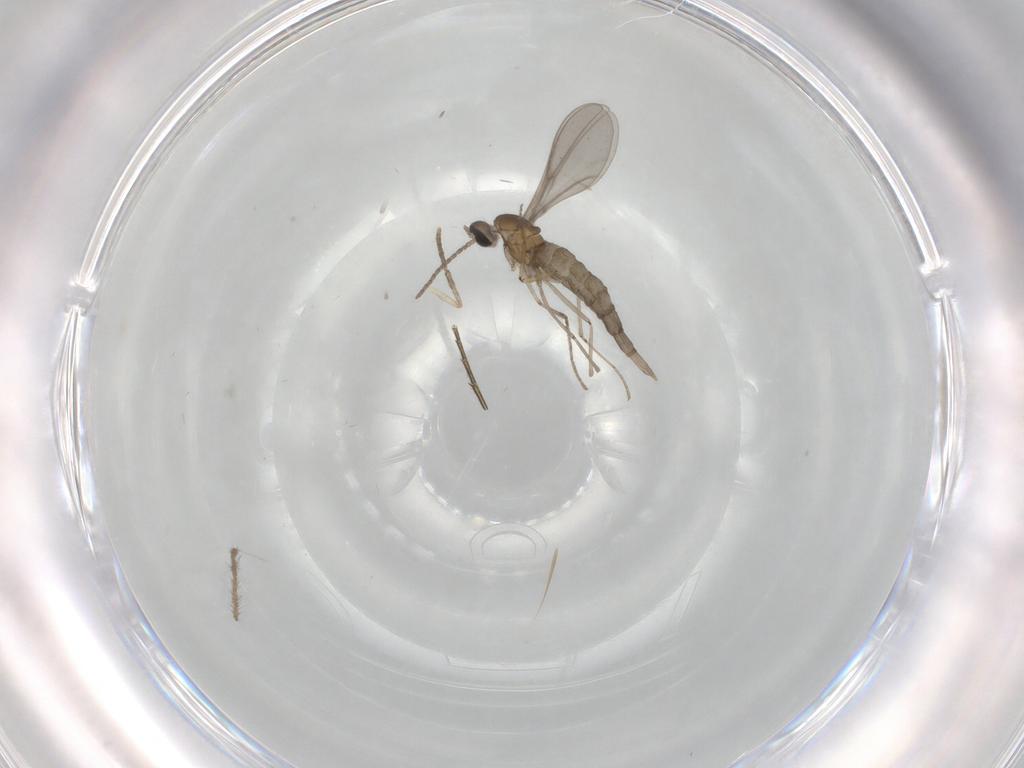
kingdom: Animalia
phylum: Arthropoda
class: Insecta
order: Diptera
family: Chironomidae
